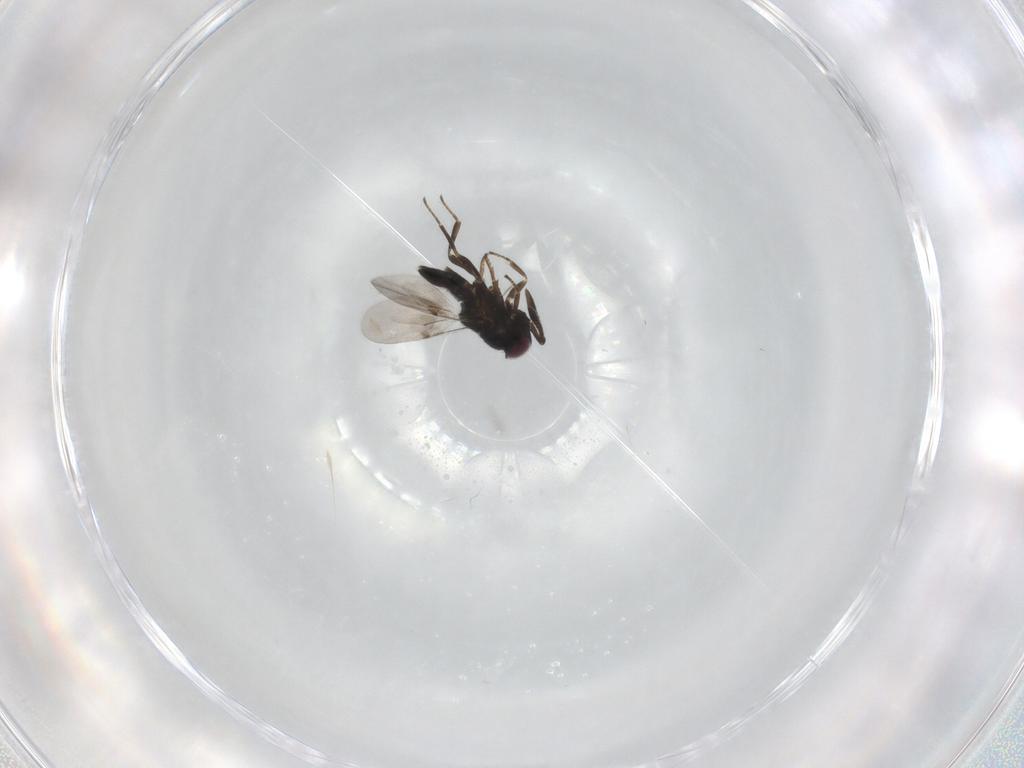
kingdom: Animalia
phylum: Arthropoda
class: Insecta
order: Hymenoptera
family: Encyrtidae
